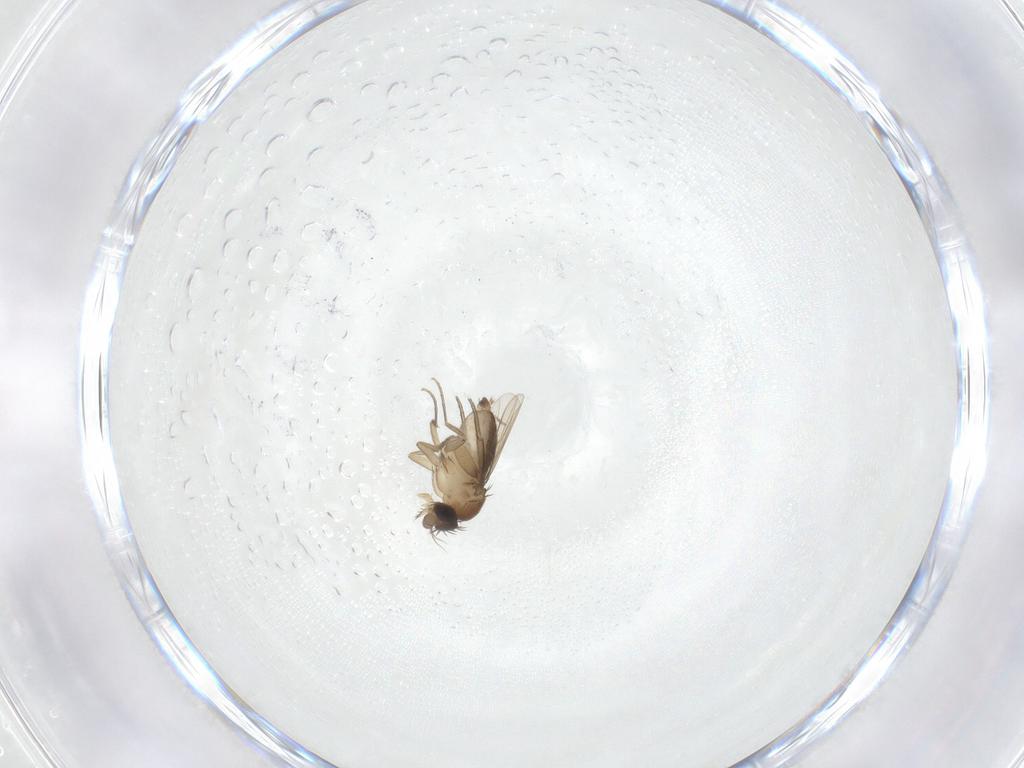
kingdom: Animalia
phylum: Arthropoda
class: Insecta
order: Diptera
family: Phoridae
